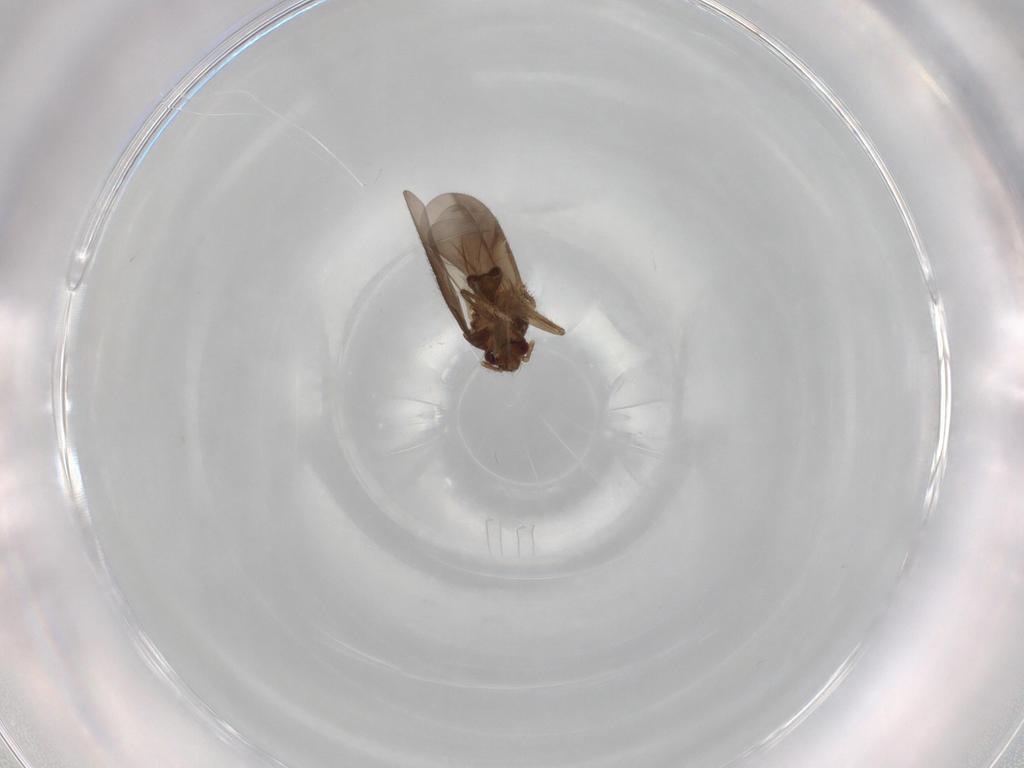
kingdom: Animalia
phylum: Arthropoda
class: Insecta
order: Hemiptera
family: Ceratocombidae
